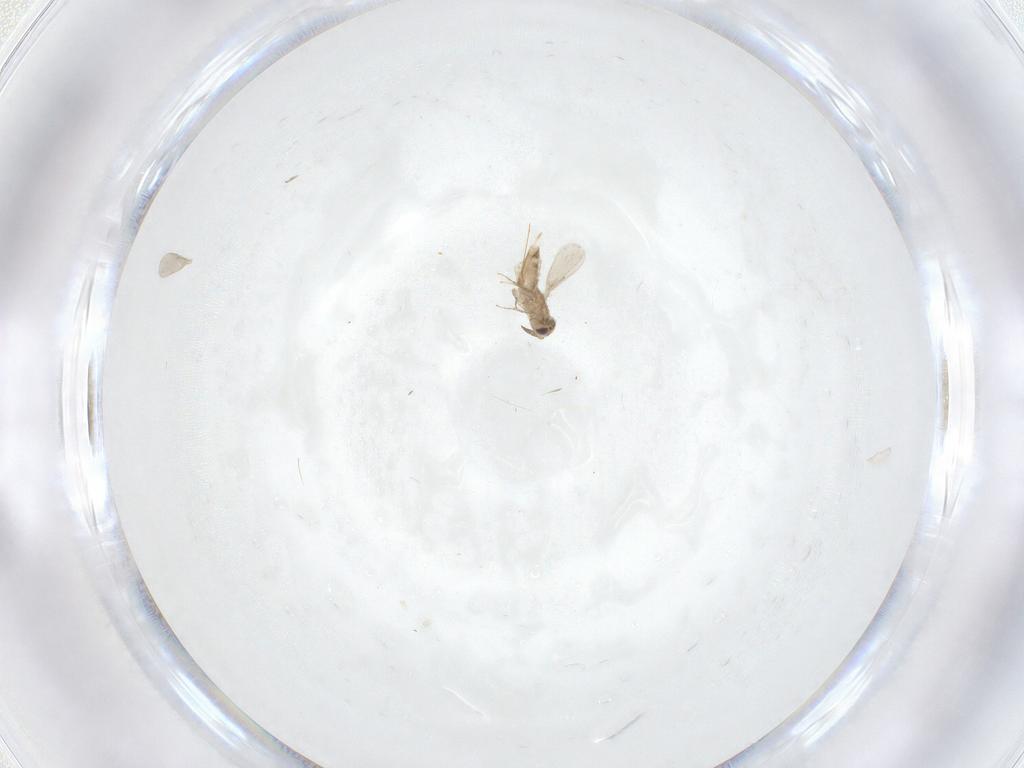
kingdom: Animalia
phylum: Arthropoda
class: Insecta
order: Hymenoptera
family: Aphelinidae
